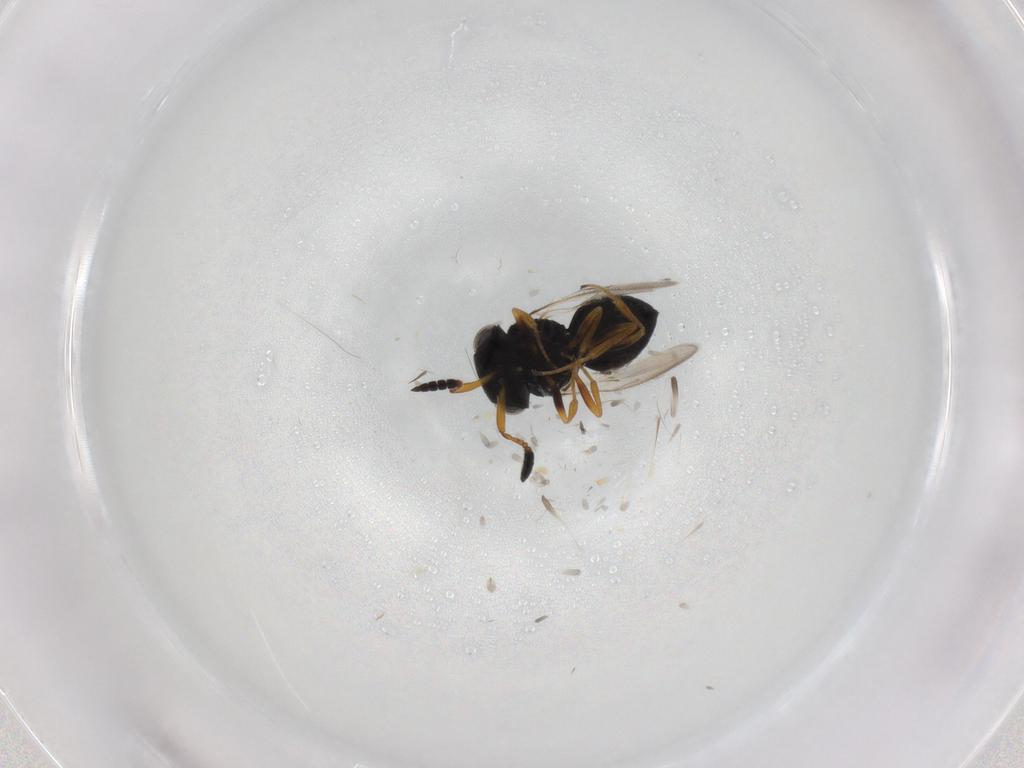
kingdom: Animalia
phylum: Arthropoda
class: Insecta
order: Hymenoptera
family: Scelionidae
